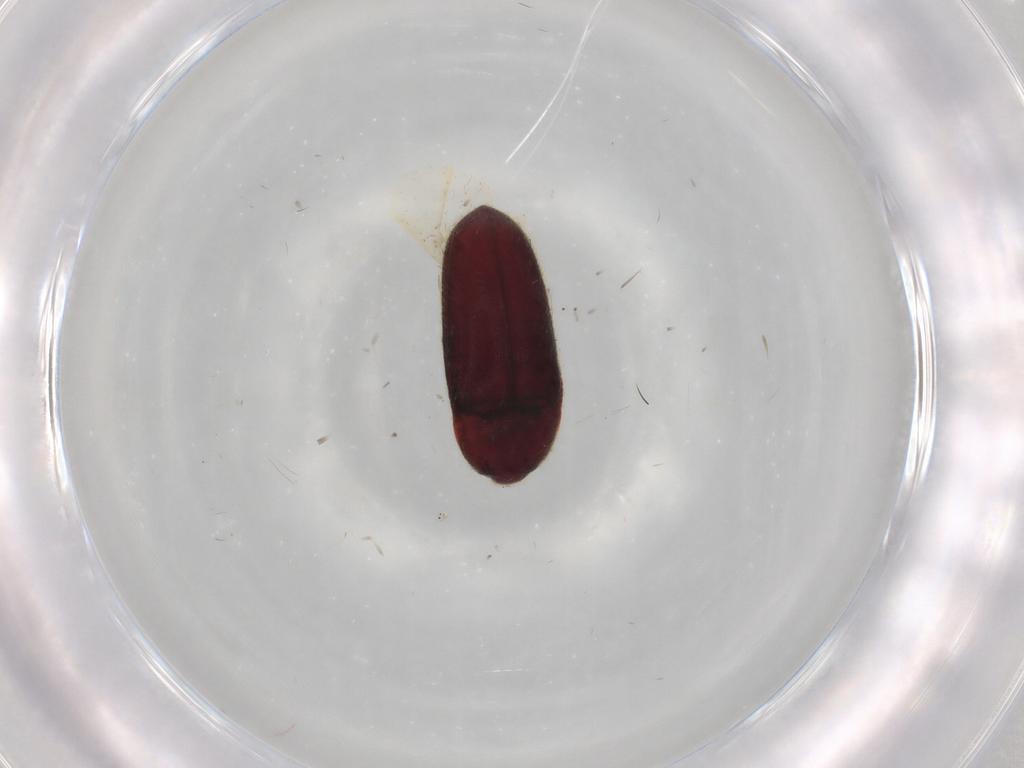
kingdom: Animalia
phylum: Arthropoda
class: Insecta
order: Coleoptera
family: Throscidae
